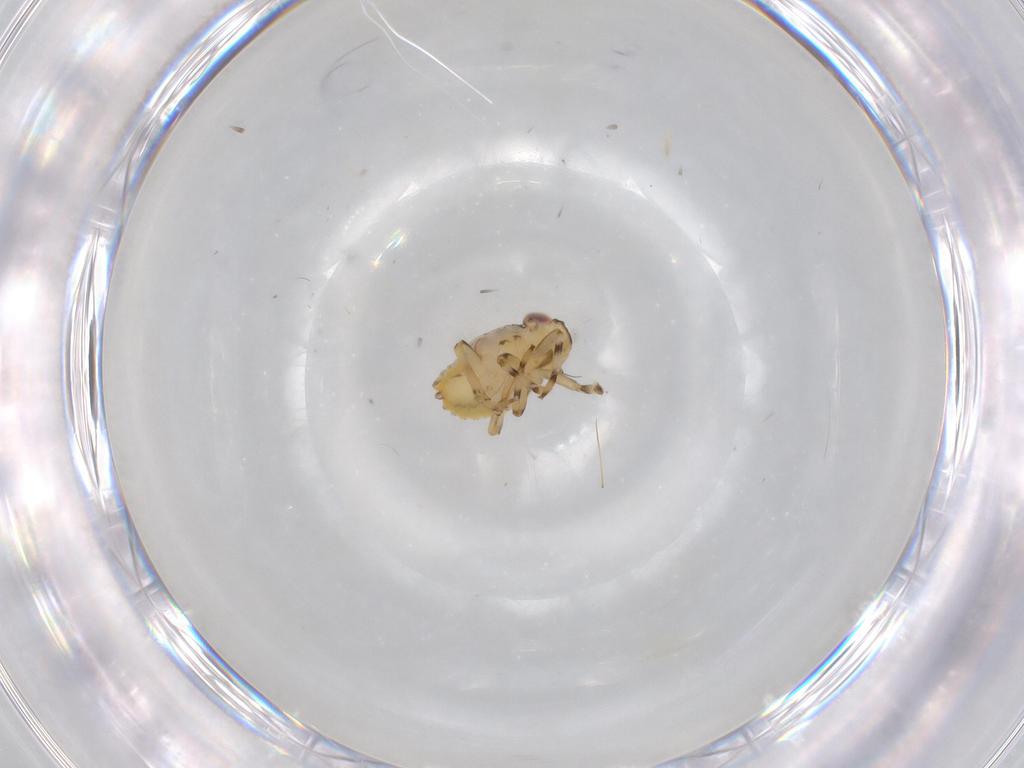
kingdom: Animalia
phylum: Arthropoda
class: Insecta
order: Hemiptera
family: Issidae
